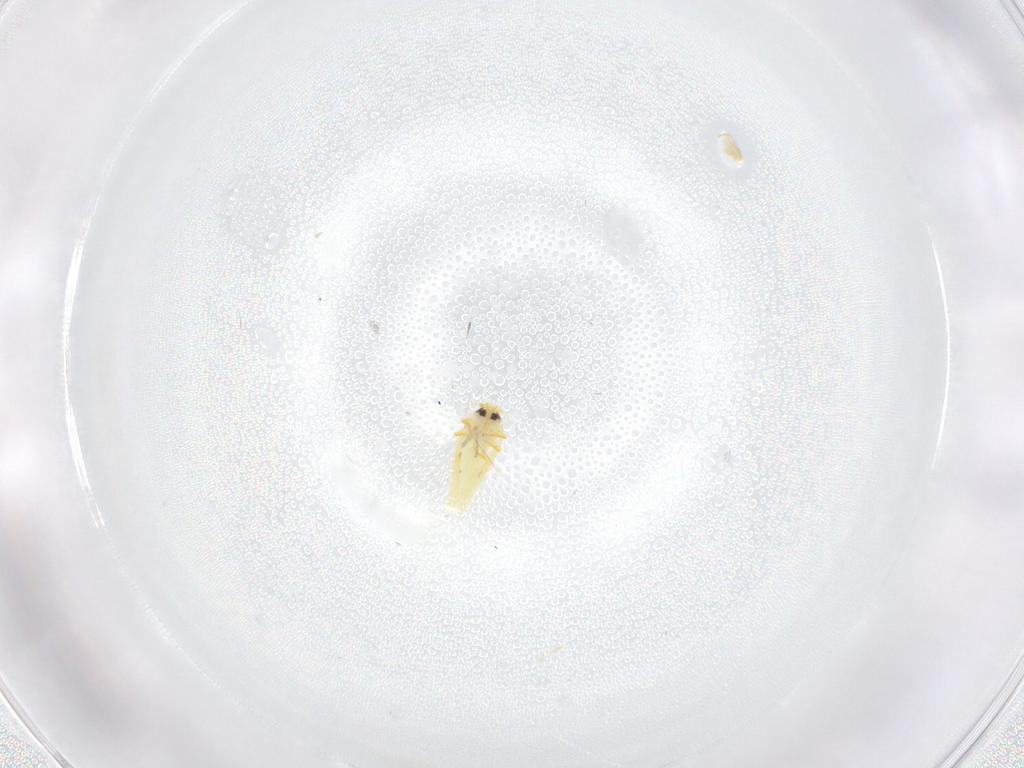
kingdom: Animalia
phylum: Arthropoda
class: Insecta
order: Hemiptera
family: Aleyrodidae
